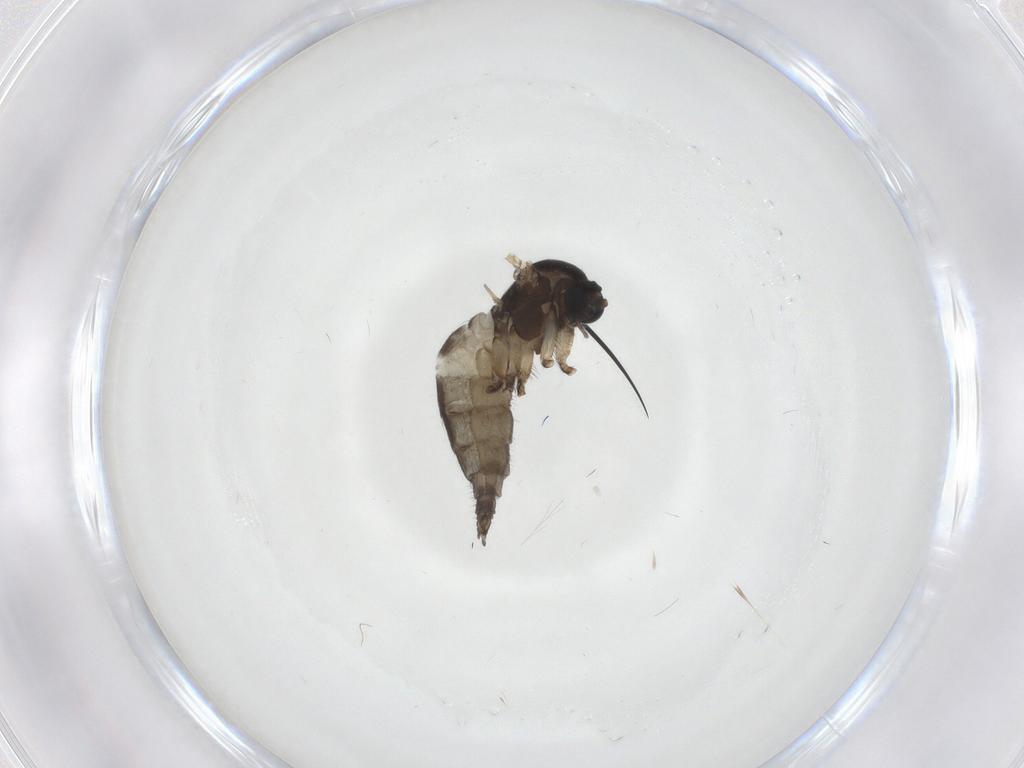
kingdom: Animalia
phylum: Arthropoda
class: Insecta
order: Diptera
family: Sciaridae
